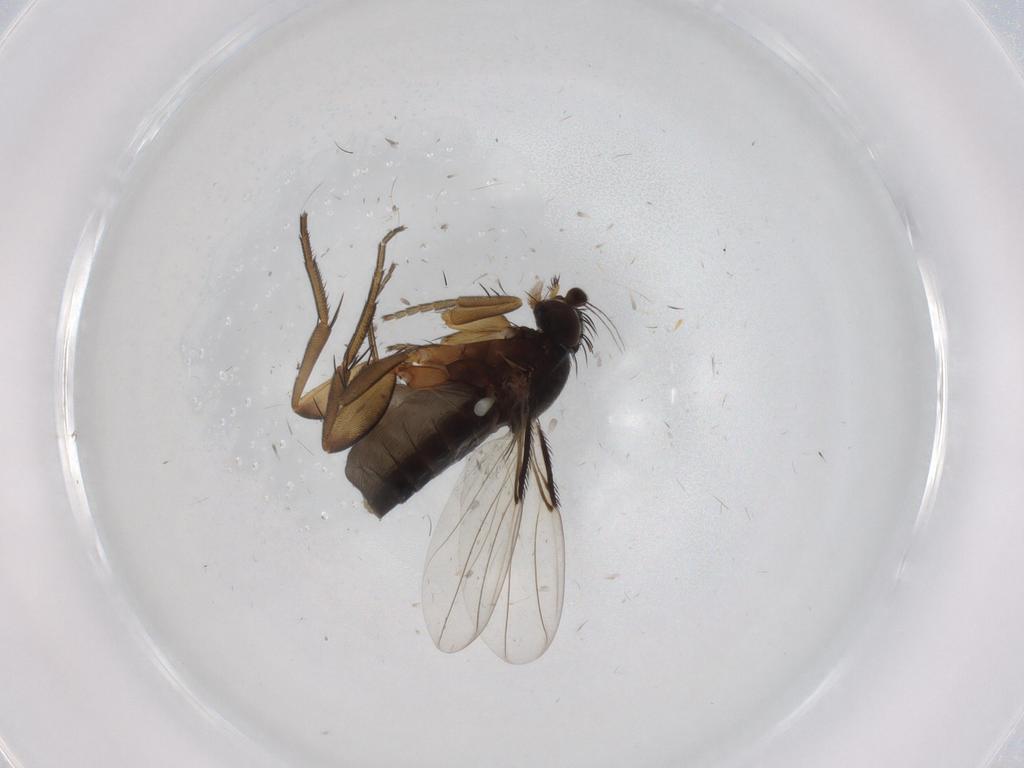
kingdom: Animalia
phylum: Arthropoda
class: Insecta
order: Diptera
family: Phoridae
